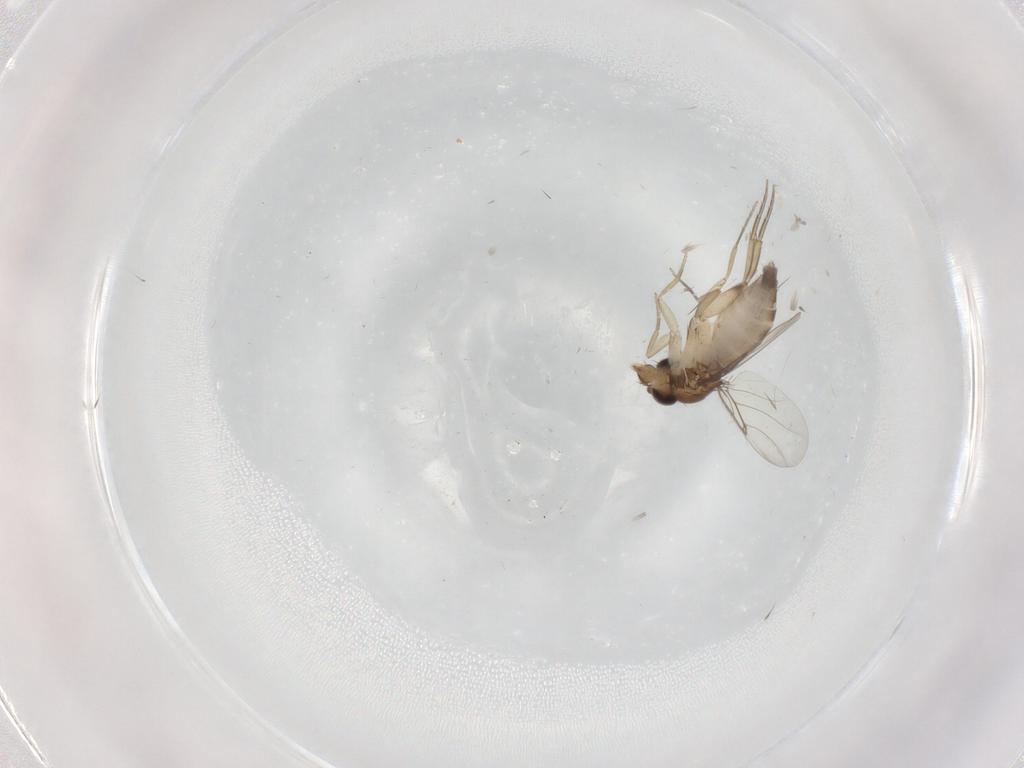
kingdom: Animalia
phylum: Arthropoda
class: Insecta
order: Diptera
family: Phoridae
